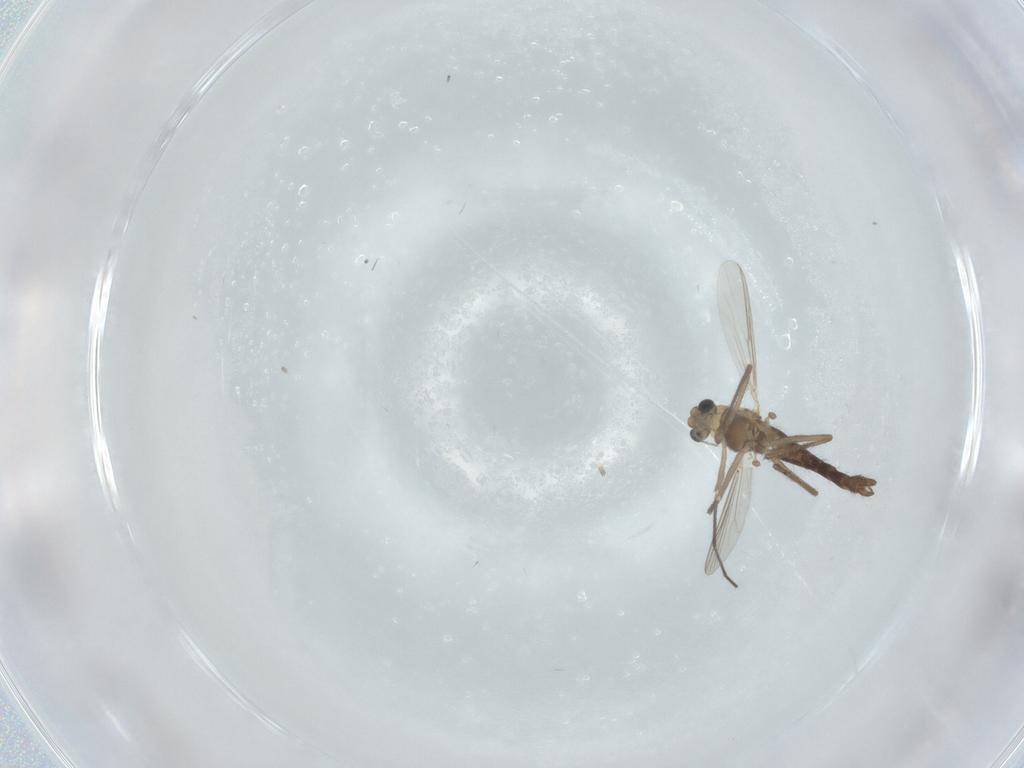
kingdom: Animalia
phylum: Arthropoda
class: Insecta
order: Diptera
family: Chironomidae
